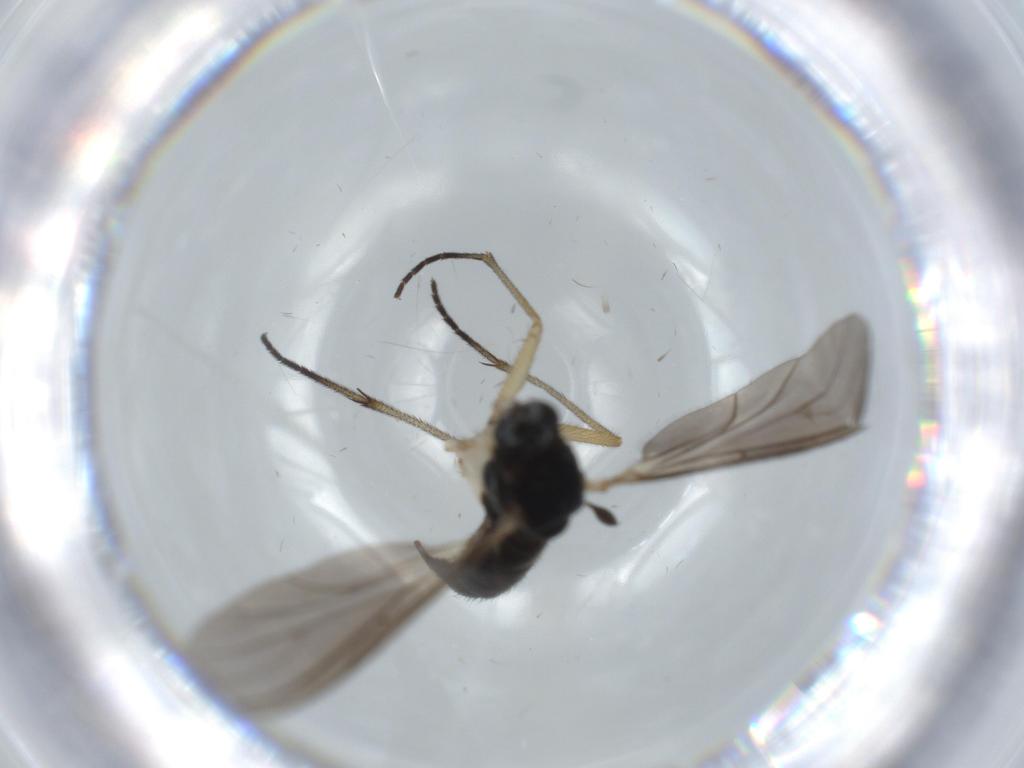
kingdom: Animalia
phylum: Arthropoda
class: Insecta
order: Diptera
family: Sciaridae
